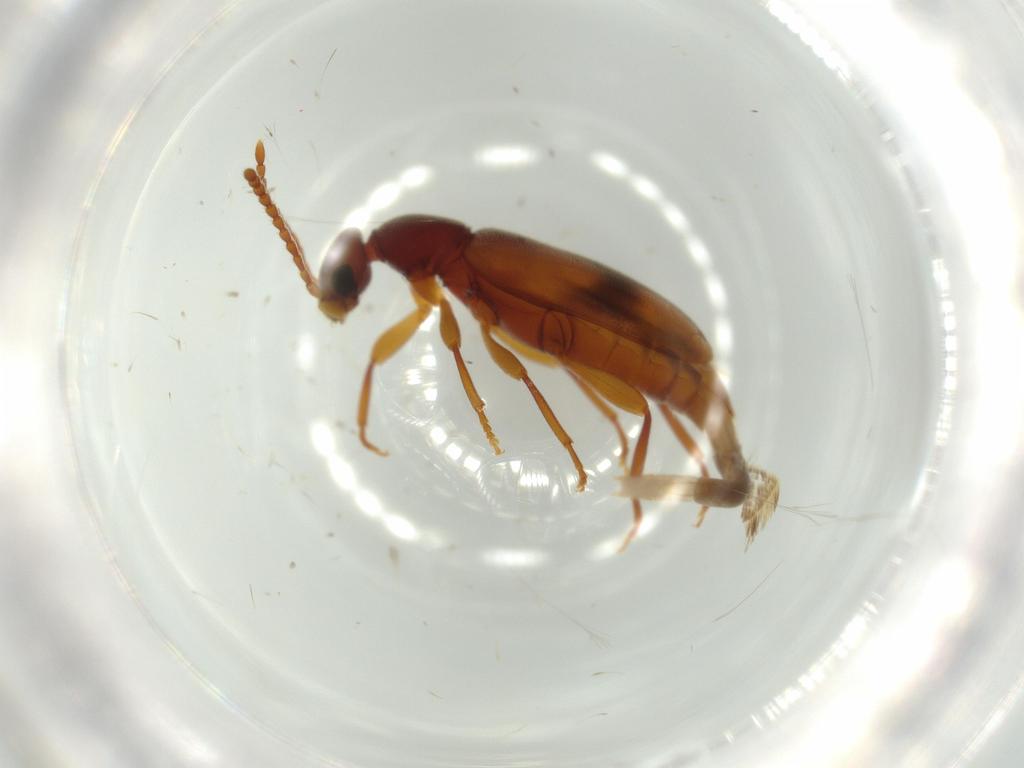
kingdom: Animalia
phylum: Arthropoda
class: Insecta
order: Coleoptera
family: Anthicidae
